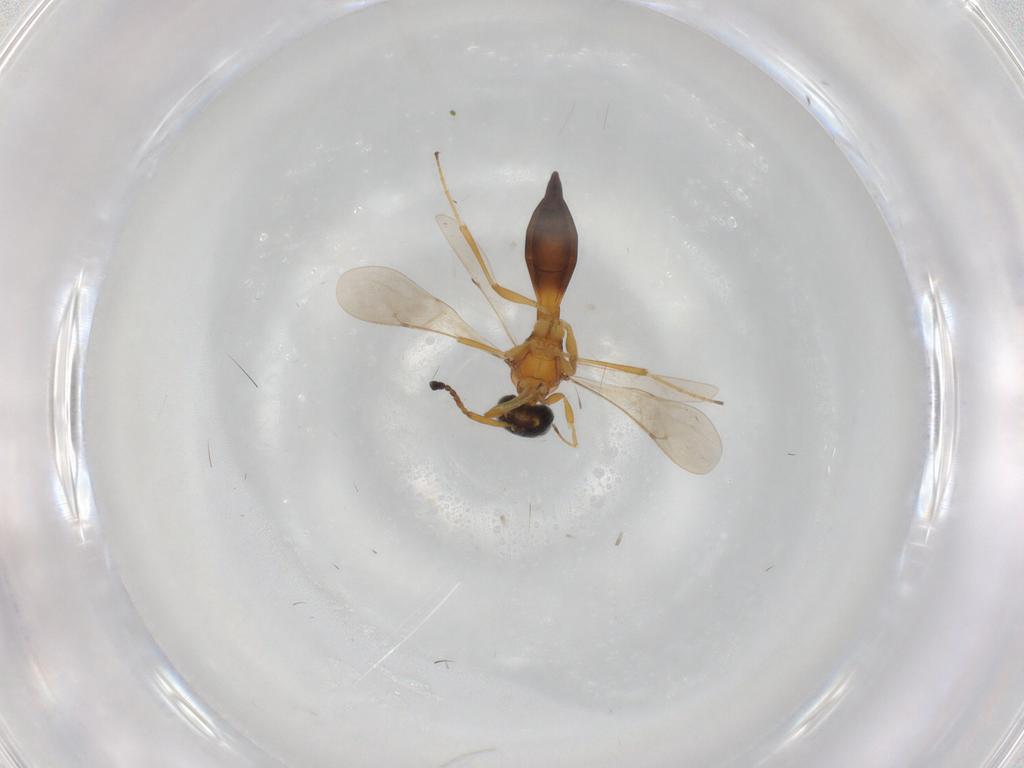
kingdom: Animalia
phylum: Arthropoda
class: Insecta
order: Hymenoptera
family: Scelionidae
